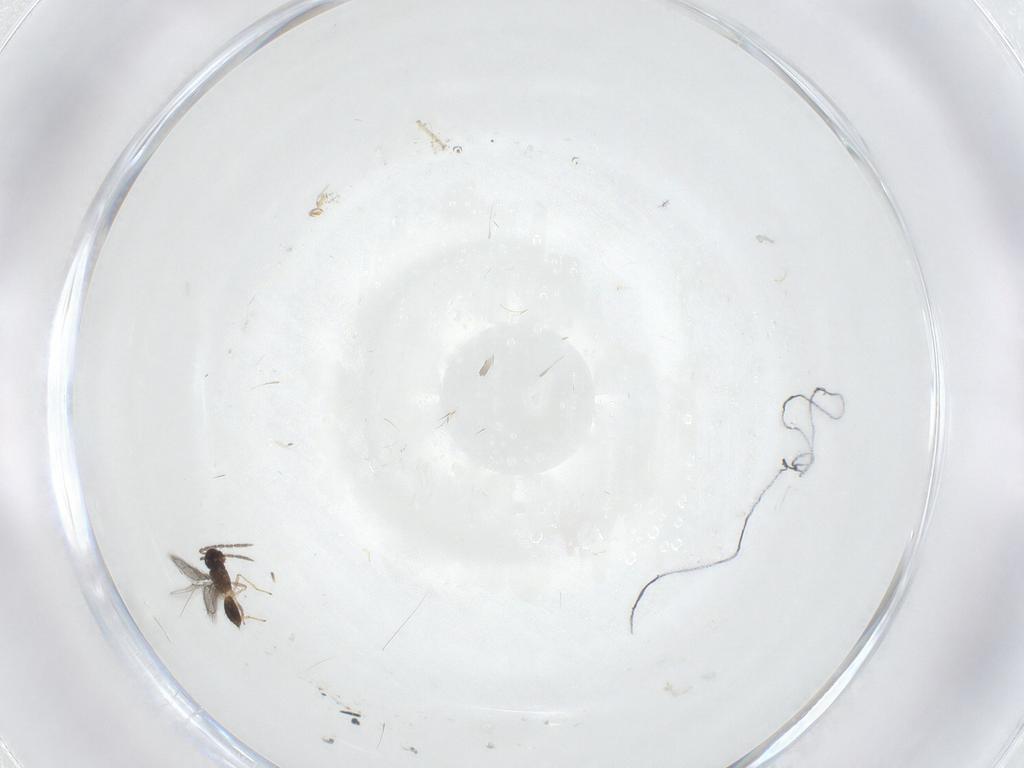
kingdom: Animalia
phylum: Arthropoda
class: Insecta
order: Hymenoptera
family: Eulophidae
